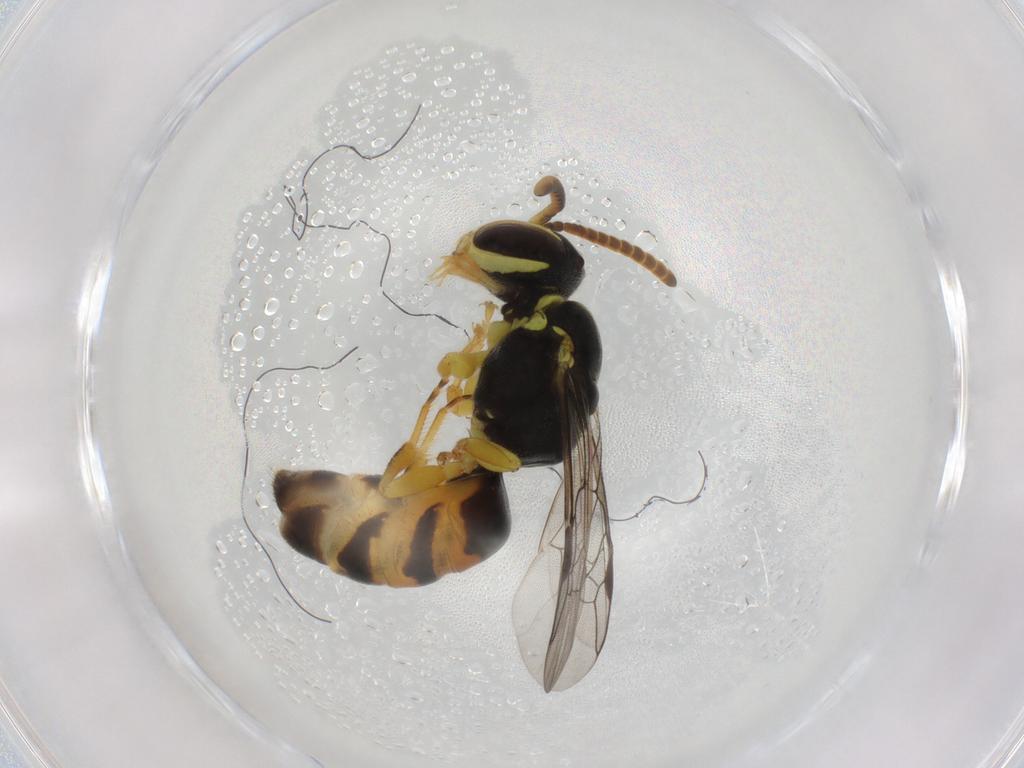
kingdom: Animalia
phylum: Arthropoda
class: Insecta
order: Hymenoptera
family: Colletidae
